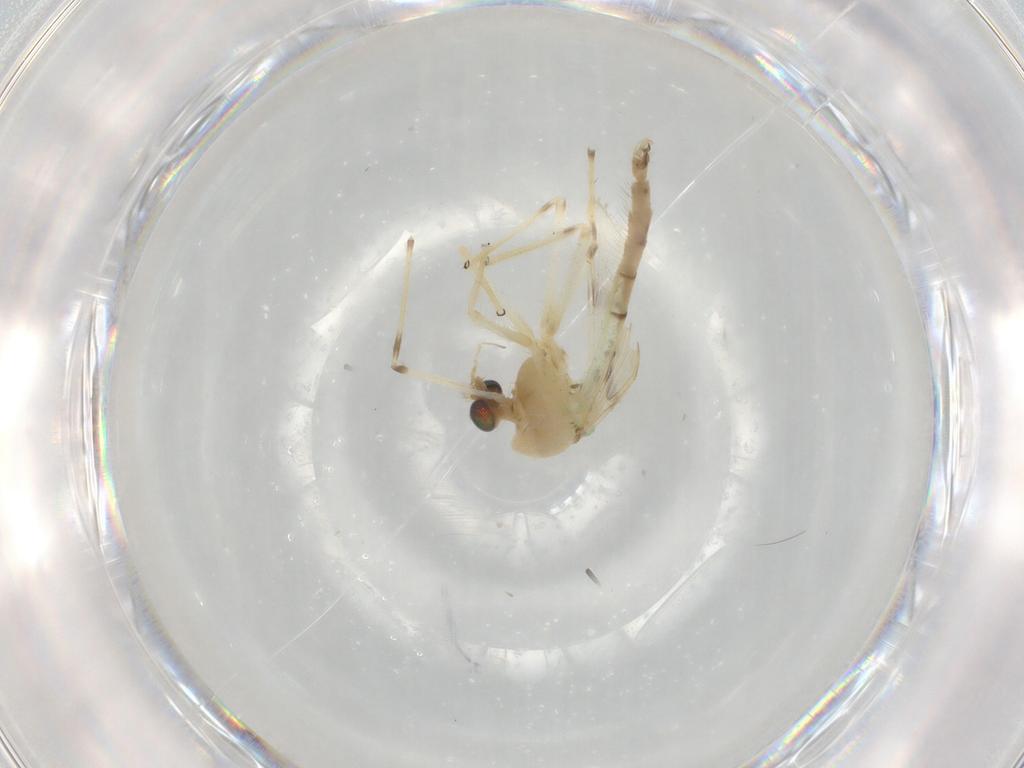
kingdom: Animalia
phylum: Arthropoda
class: Insecta
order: Diptera
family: Chironomidae
